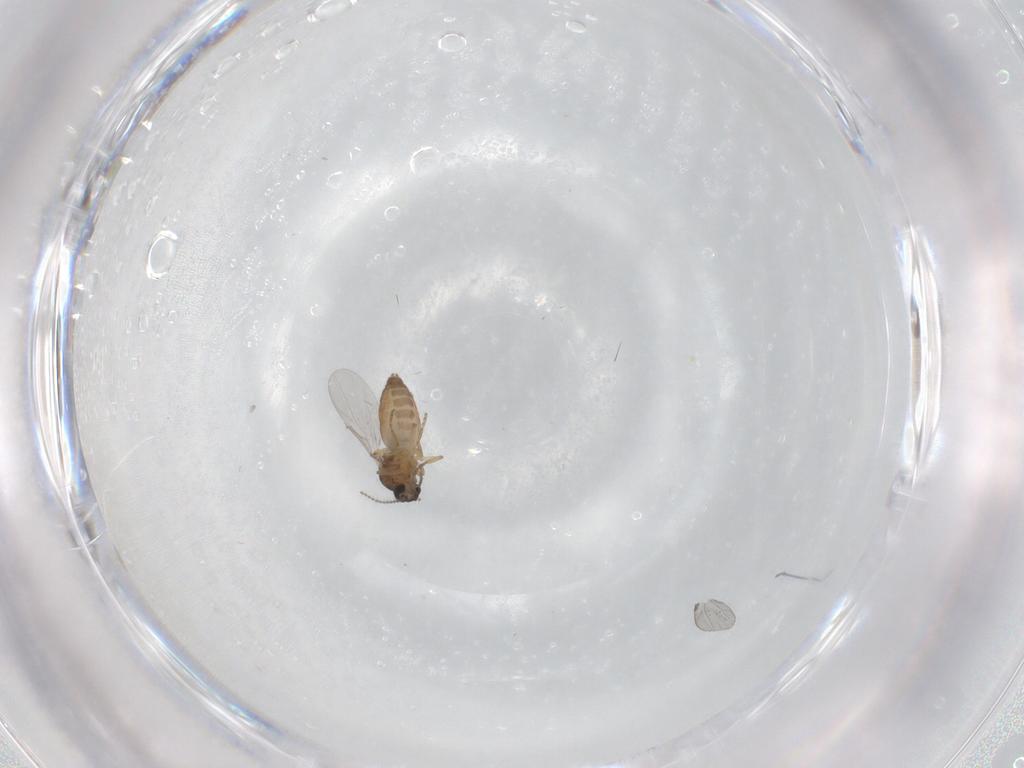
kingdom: Animalia
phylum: Arthropoda
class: Insecta
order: Diptera
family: Ceratopogonidae
